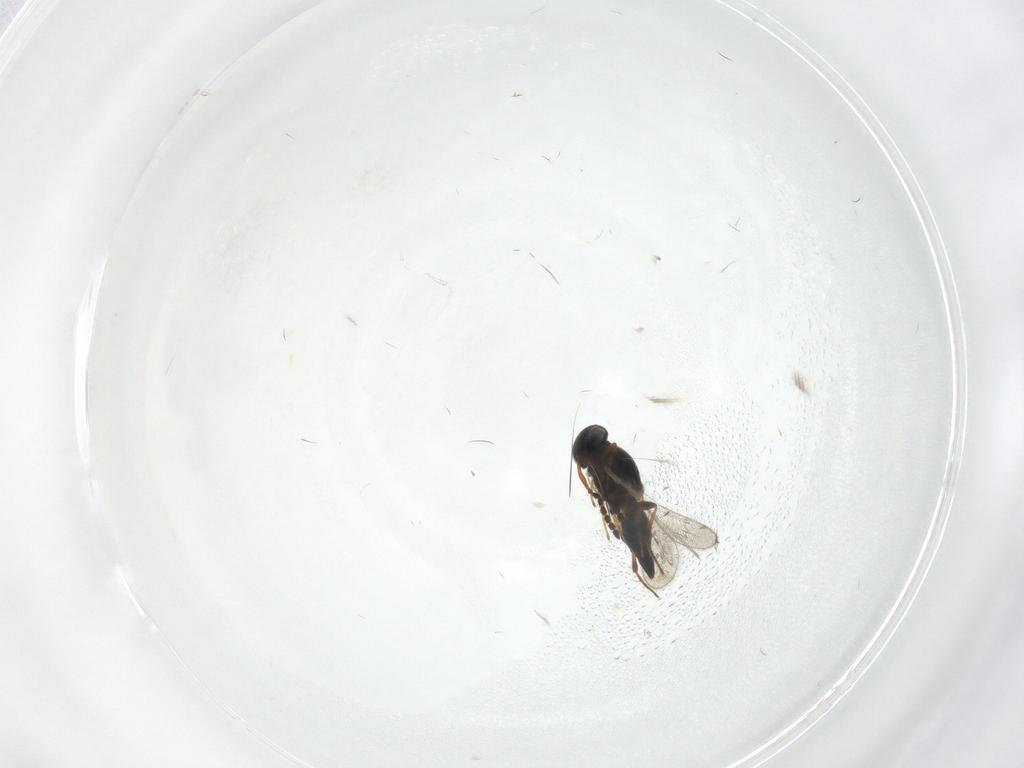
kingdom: Animalia
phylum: Arthropoda
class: Insecta
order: Hymenoptera
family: Platygastridae
